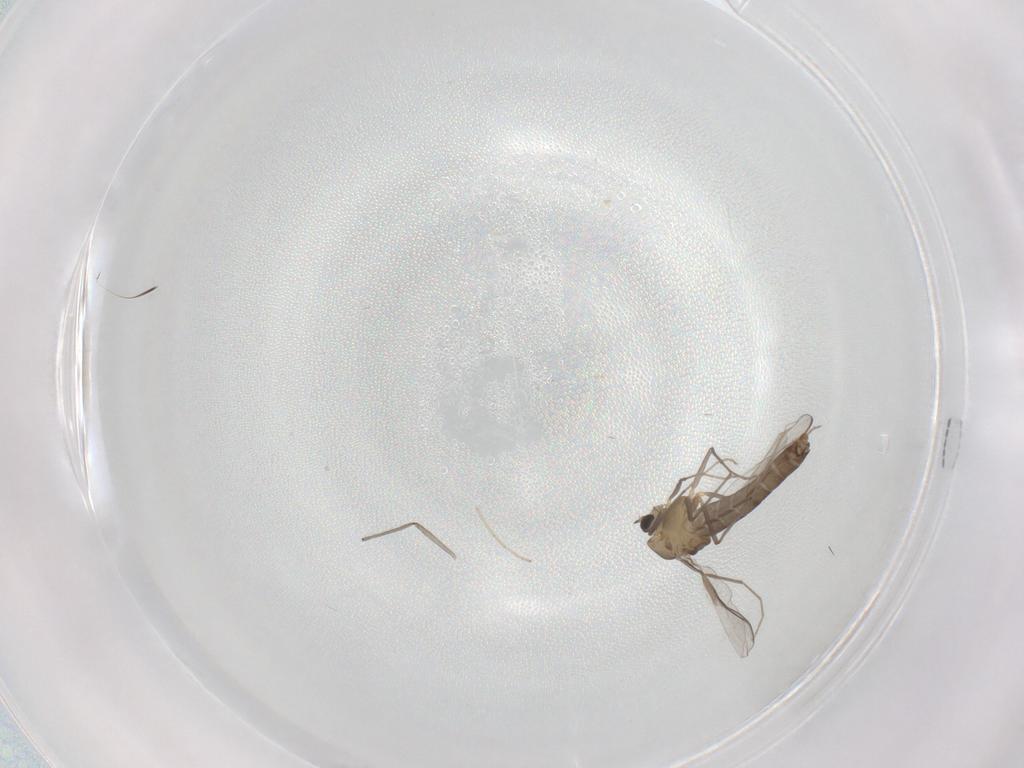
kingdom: Animalia
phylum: Arthropoda
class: Insecta
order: Diptera
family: Chironomidae
